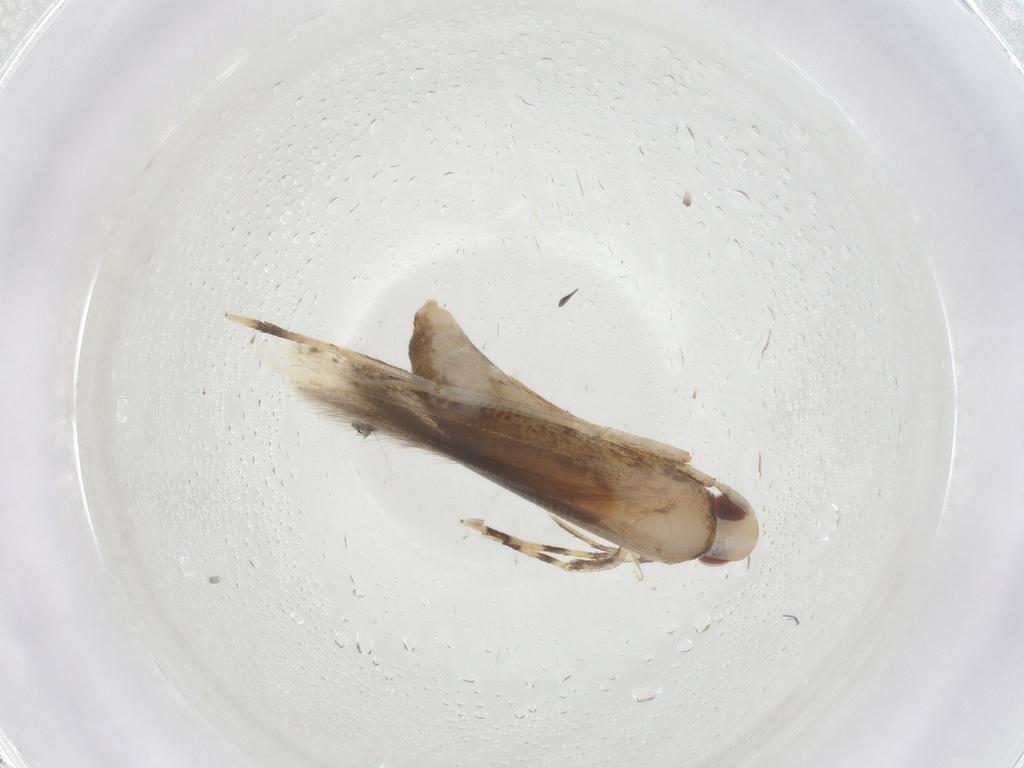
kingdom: Animalia
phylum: Arthropoda
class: Insecta
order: Lepidoptera
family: Cosmopterigidae
